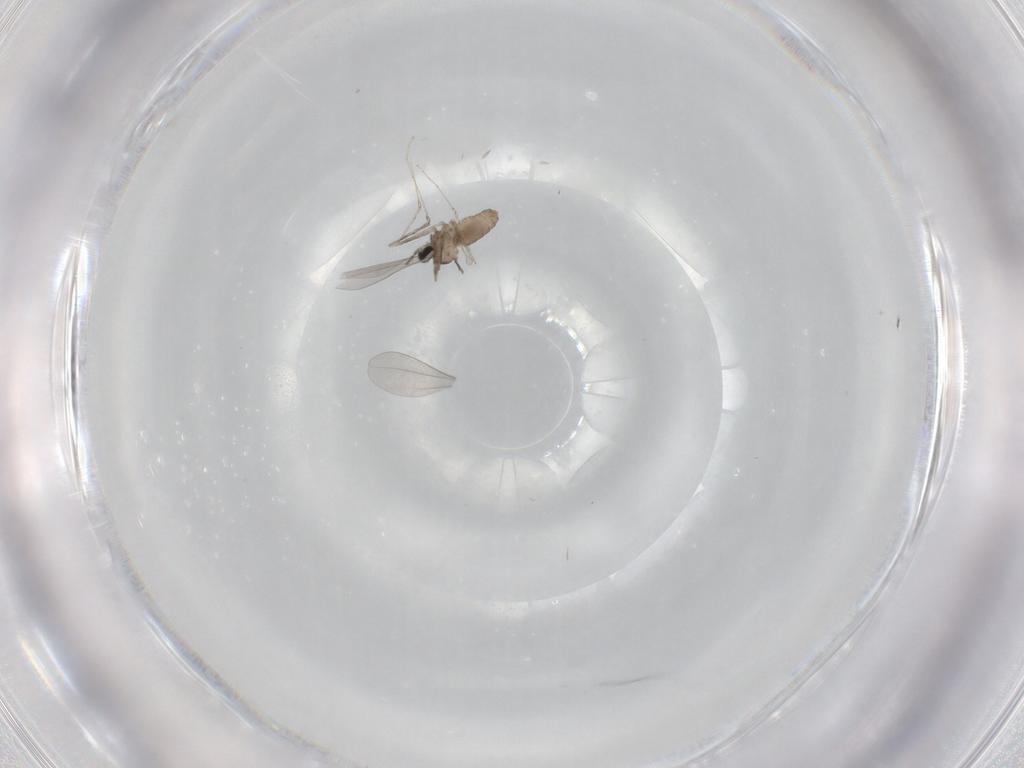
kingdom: Animalia
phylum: Arthropoda
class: Insecta
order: Diptera
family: Cecidomyiidae
